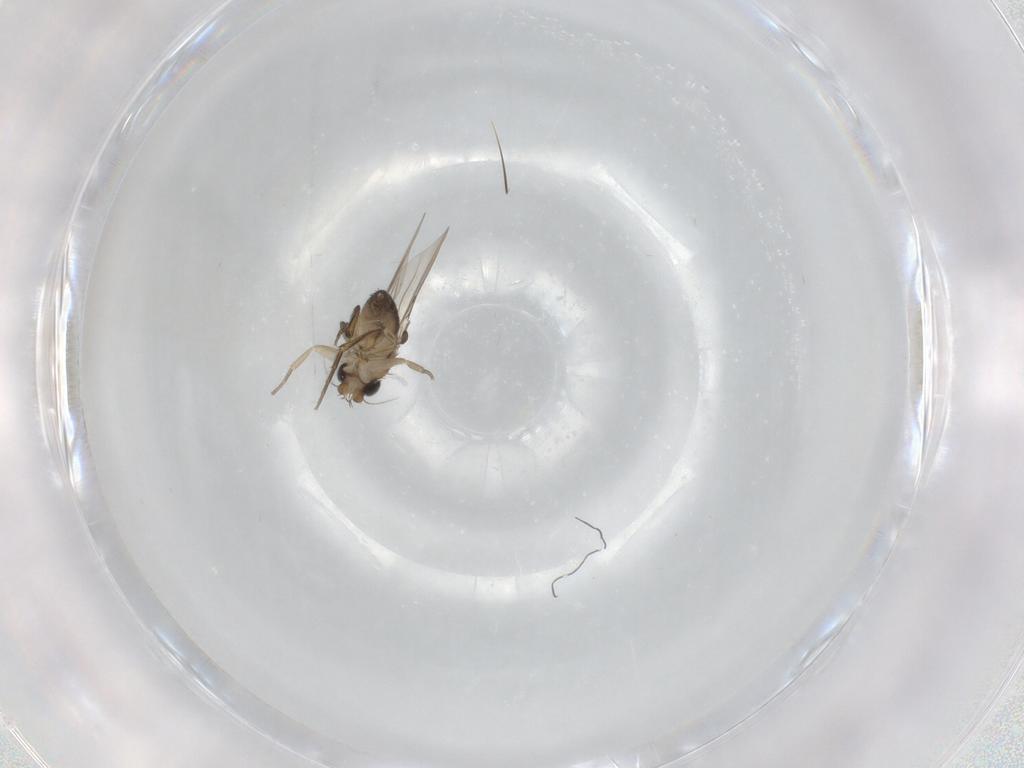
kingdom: Animalia
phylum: Arthropoda
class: Insecta
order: Diptera
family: Phoridae
